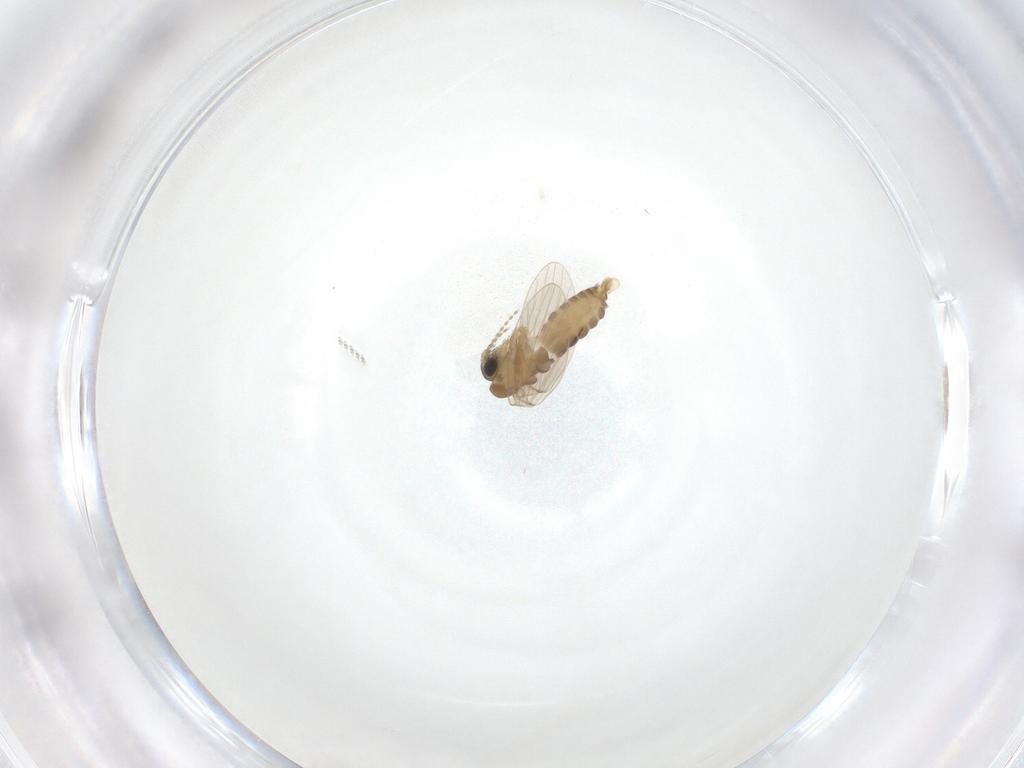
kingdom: Animalia
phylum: Arthropoda
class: Insecta
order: Diptera
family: Psychodidae
